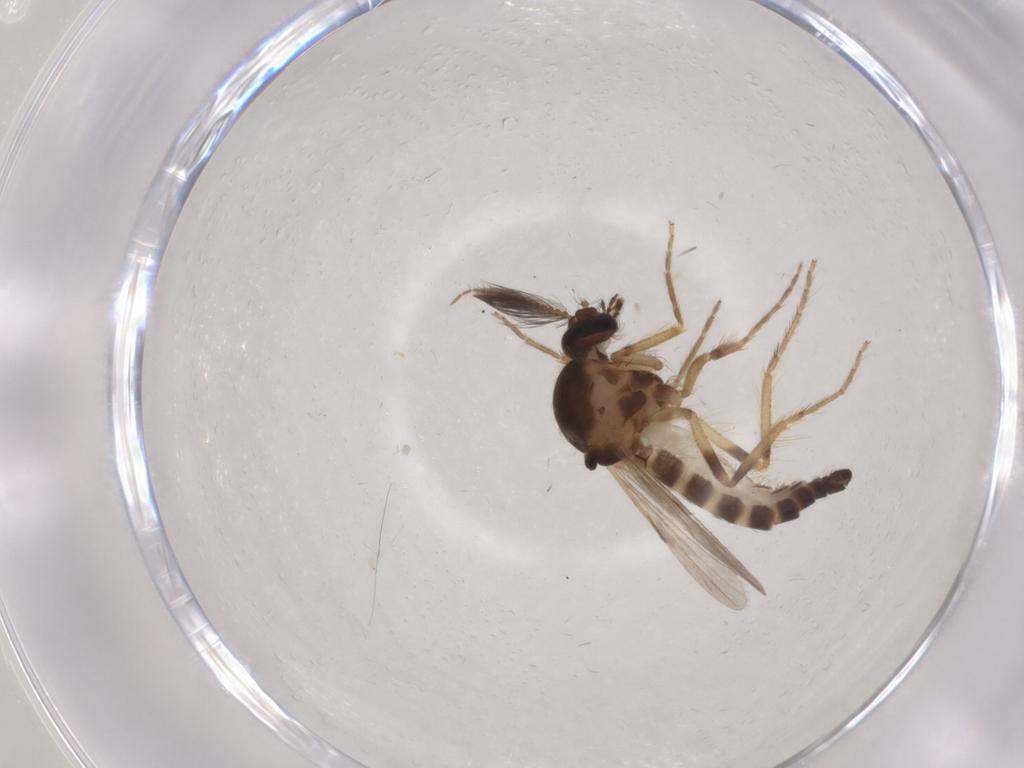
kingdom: Animalia
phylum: Arthropoda
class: Insecta
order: Diptera
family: Ceratopogonidae
